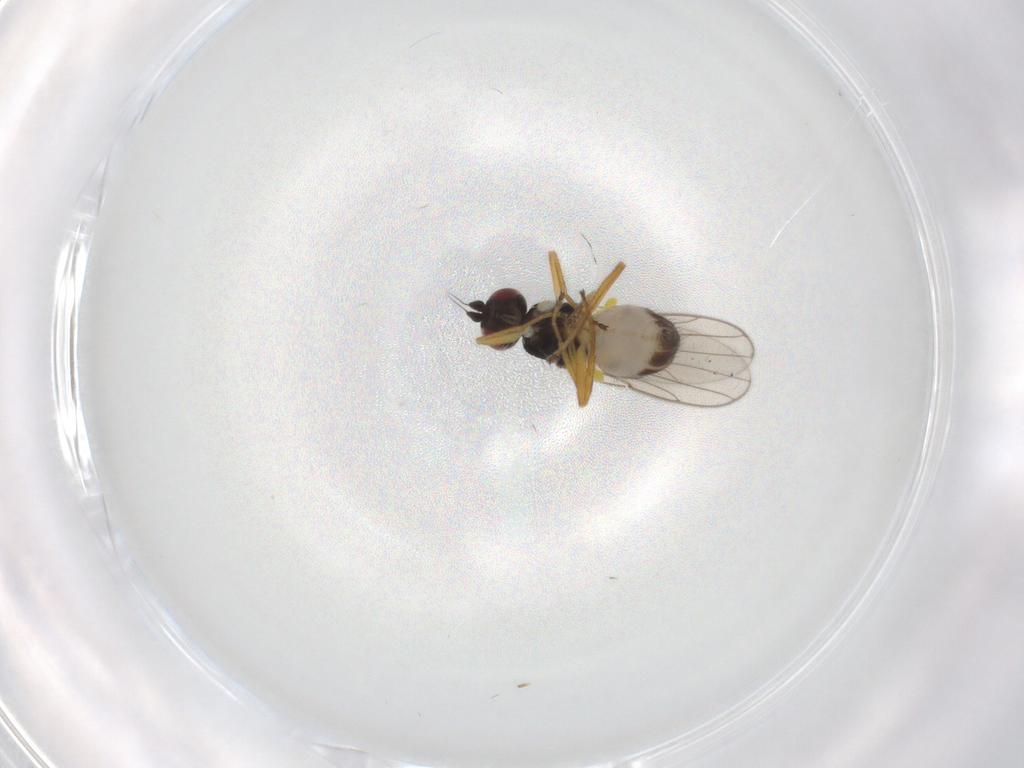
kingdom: Animalia
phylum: Arthropoda
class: Insecta
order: Diptera
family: Chloropidae
